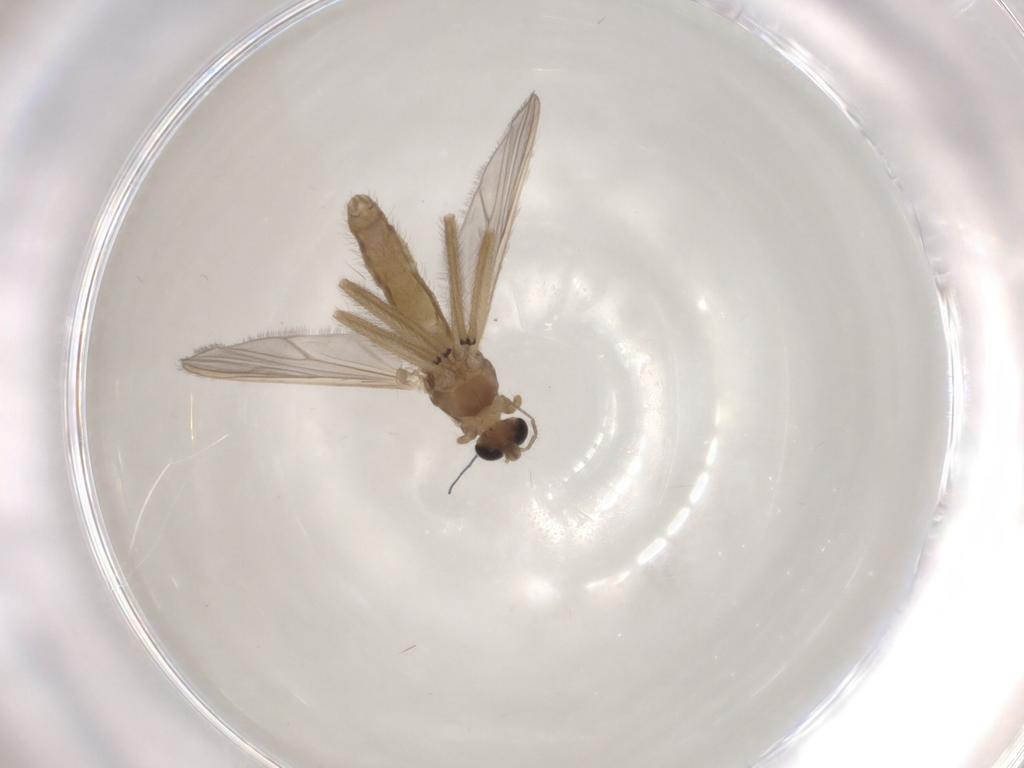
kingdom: Animalia
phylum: Arthropoda
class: Insecta
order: Diptera
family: Chironomidae
